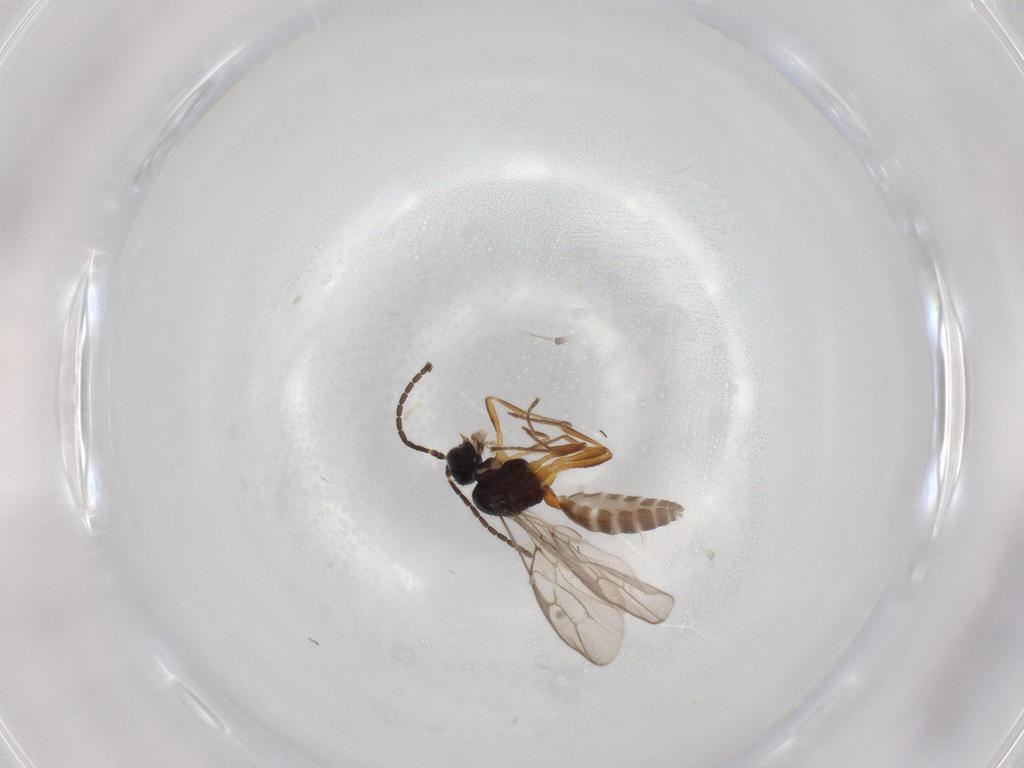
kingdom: Animalia
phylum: Arthropoda
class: Insecta
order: Hymenoptera
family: Braconidae
